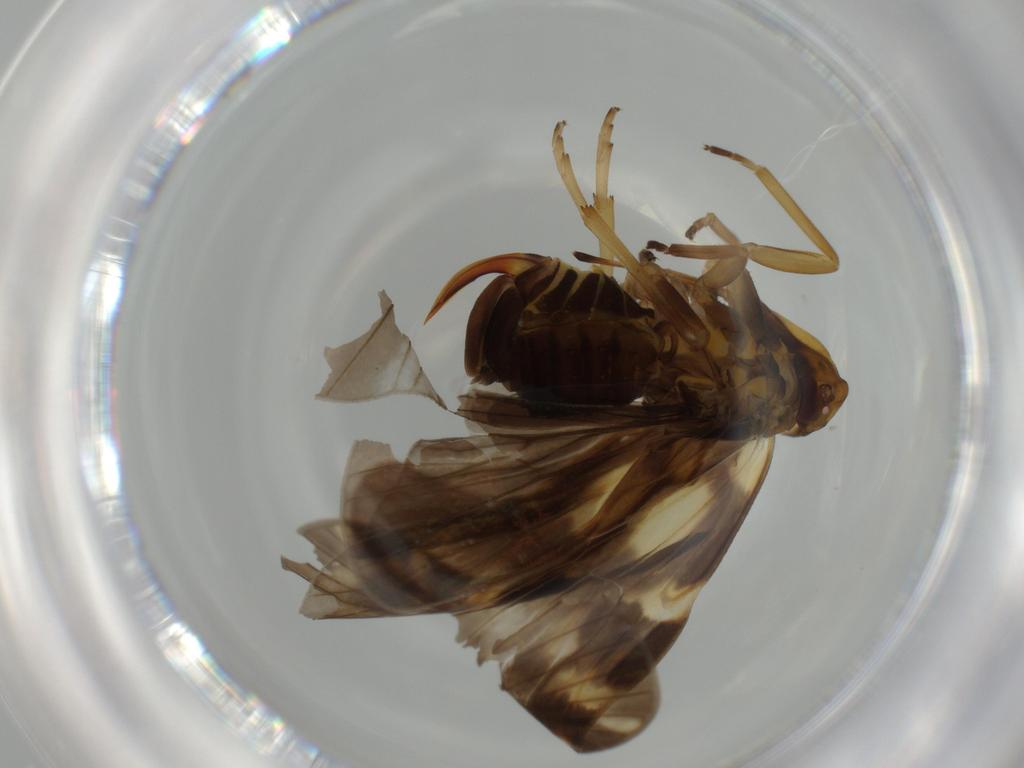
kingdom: Animalia
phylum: Arthropoda
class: Insecta
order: Hemiptera
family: Cixiidae
